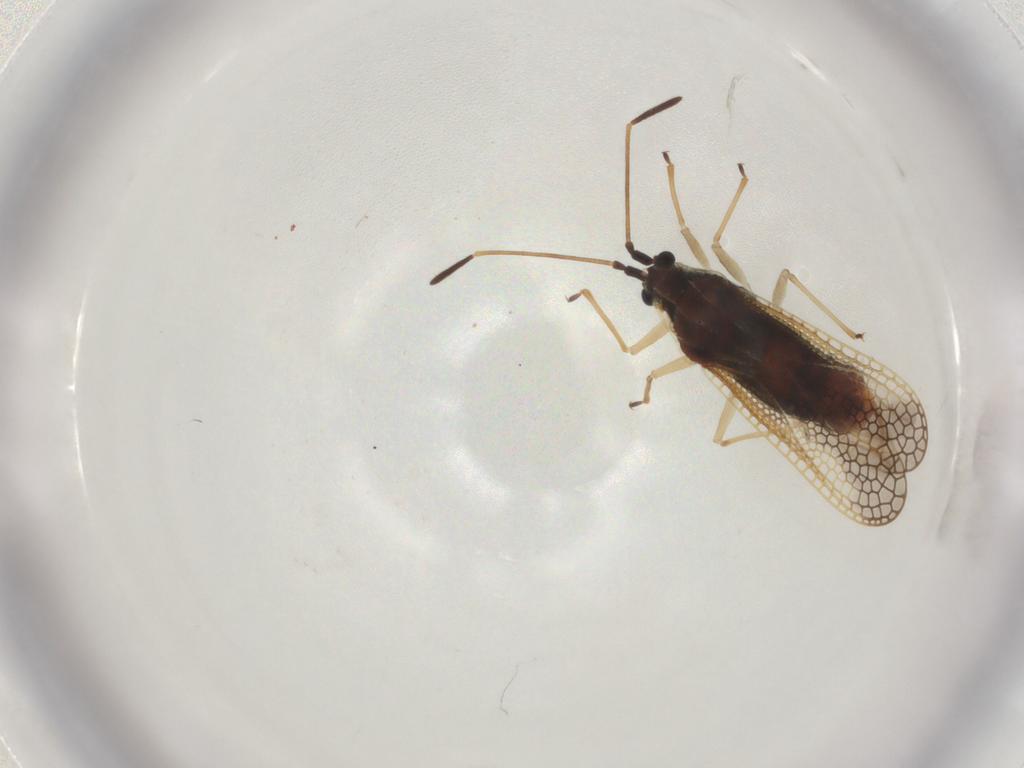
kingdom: Animalia
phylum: Arthropoda
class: Insecta
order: Hemiptera
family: Tingidae
